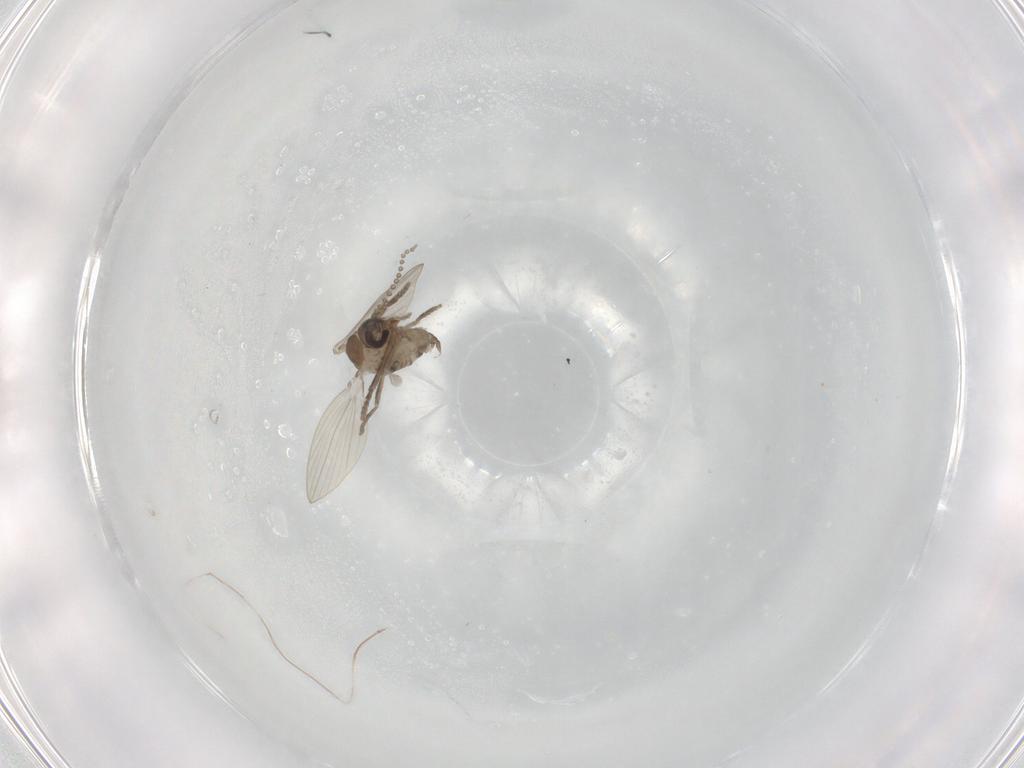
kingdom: Animalia
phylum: Arthropoda
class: Insecta
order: Diptera
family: Psychodidae
